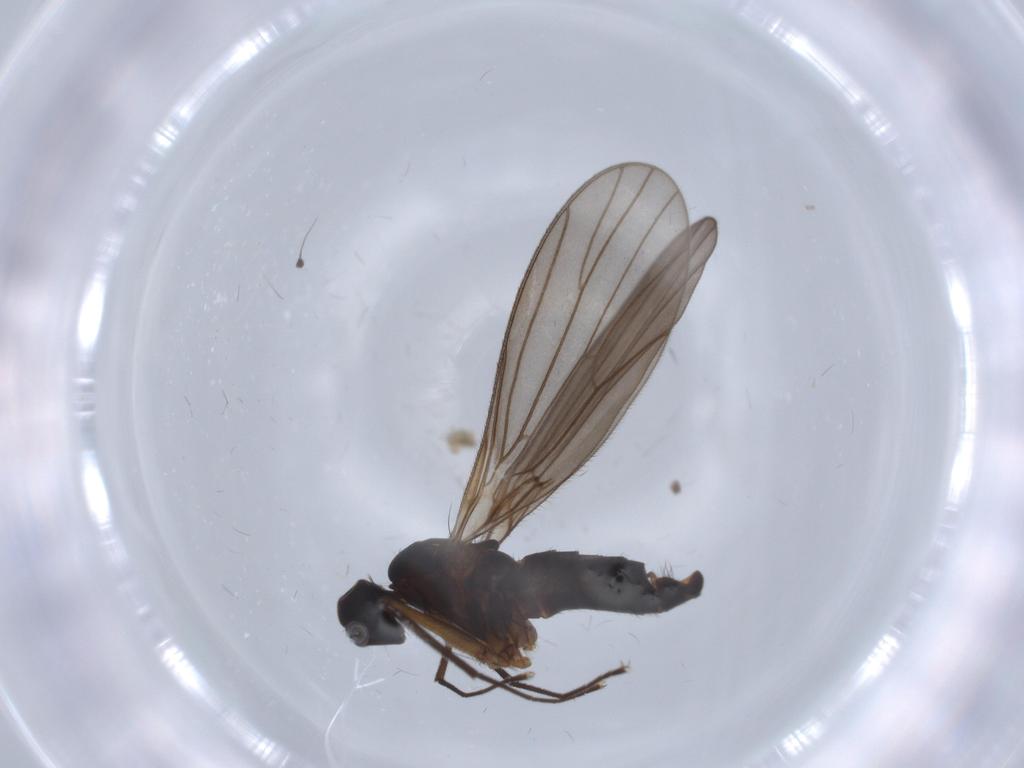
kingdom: Animalia
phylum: Arthropoda
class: Insecta
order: Diptera
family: Empididae
